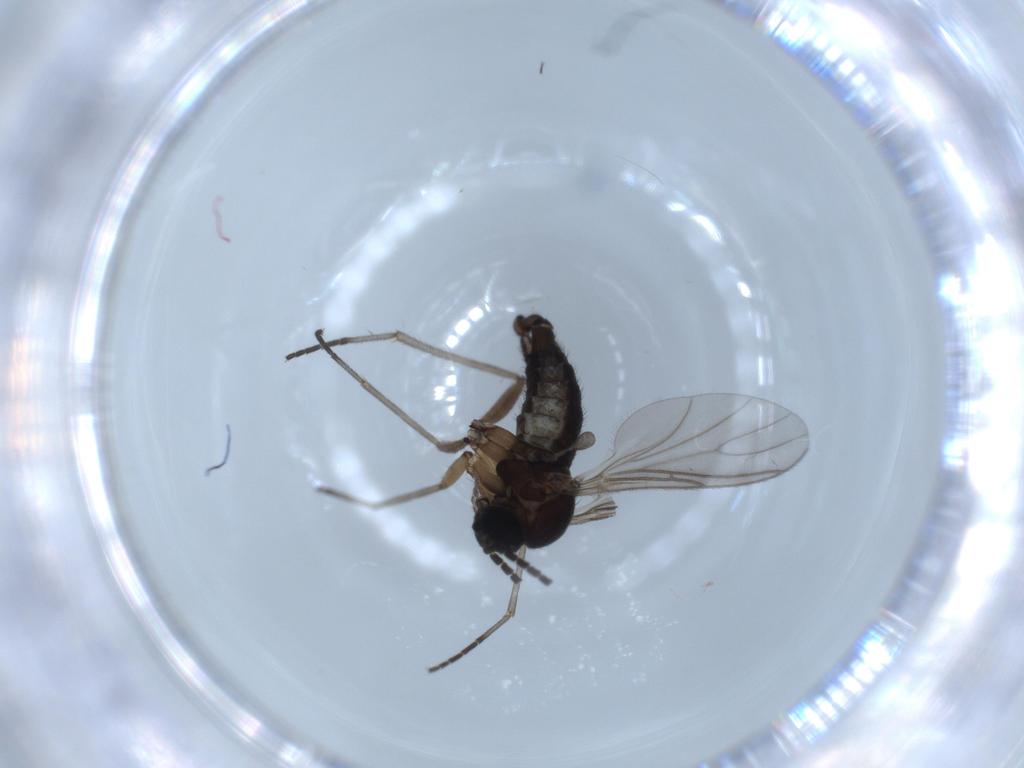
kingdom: Animalia
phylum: Arthropoda
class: Insecta
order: Diptera
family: Sciaridae
